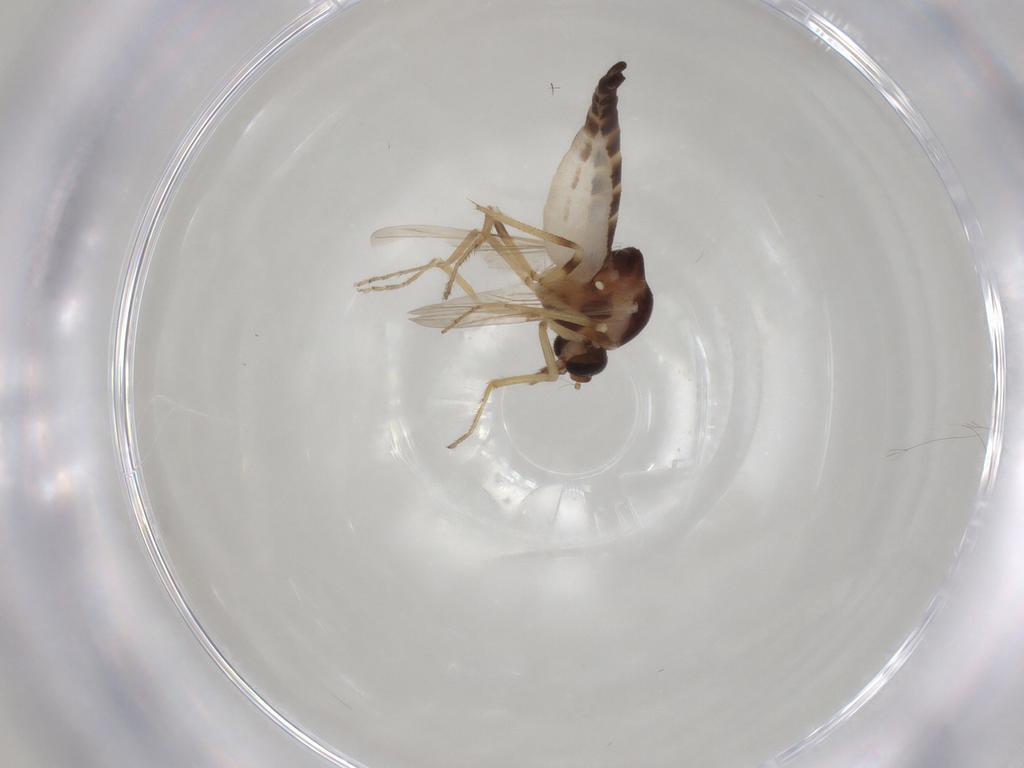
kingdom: Animalia
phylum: Arthropoda
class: Insecta
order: Diptera
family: Ceratopogonidae
